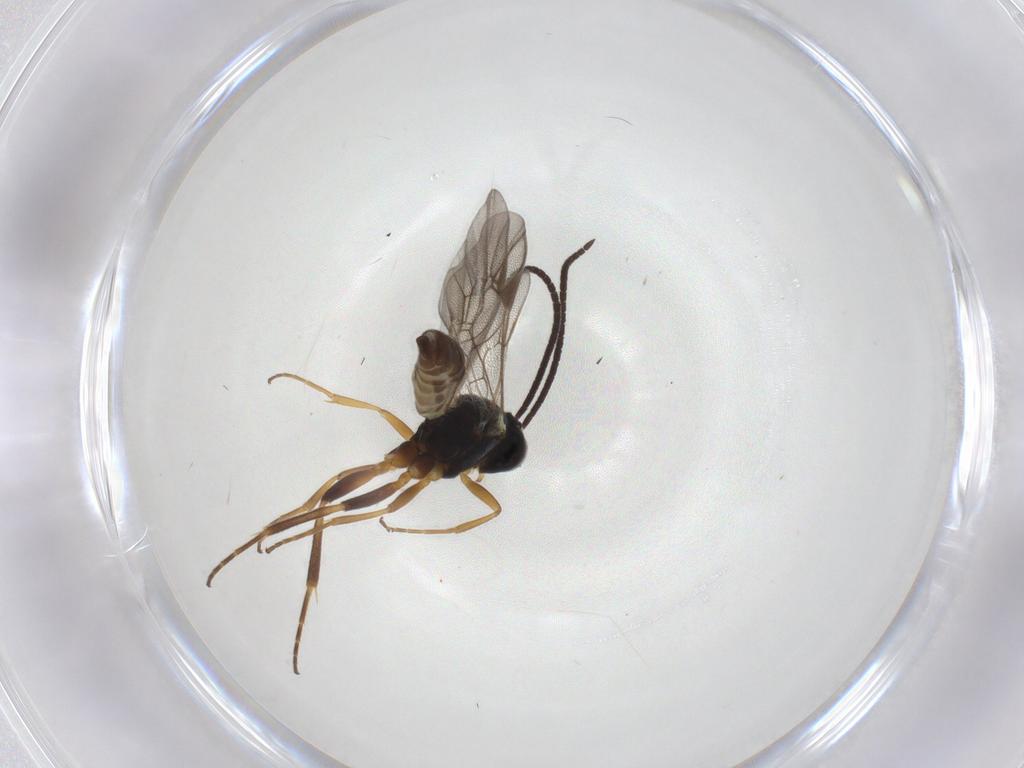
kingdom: Animalia
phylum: Arthropoda
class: Insecta
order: Hymenoptera
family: Ichneumonidae
